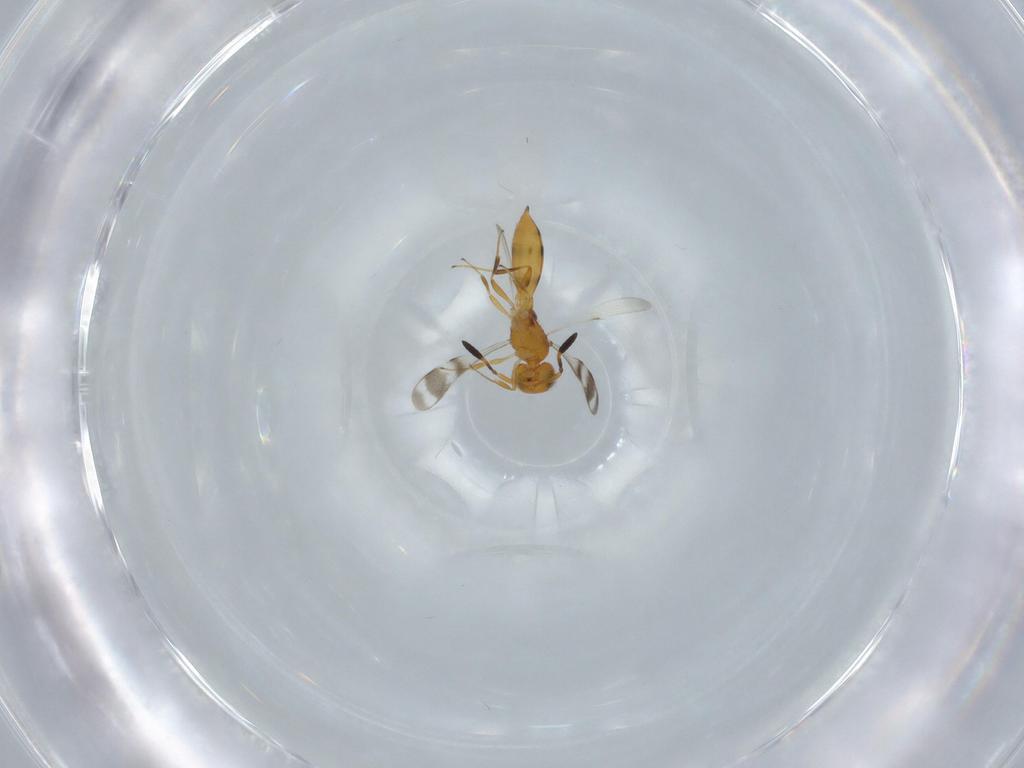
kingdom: Animalia
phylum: Arthropoda
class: Insecta
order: Hymenoptera
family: Scelionidae
